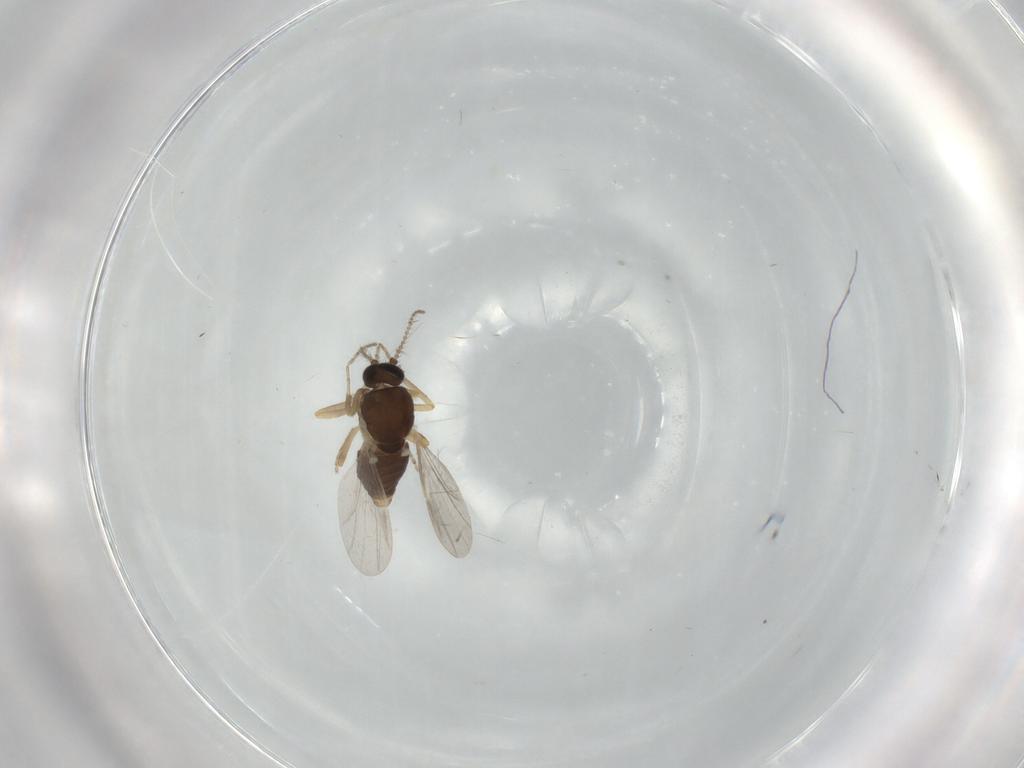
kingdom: Animalia
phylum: Arthropoda
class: Insecta
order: Diptera
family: Ceratopogonidae
